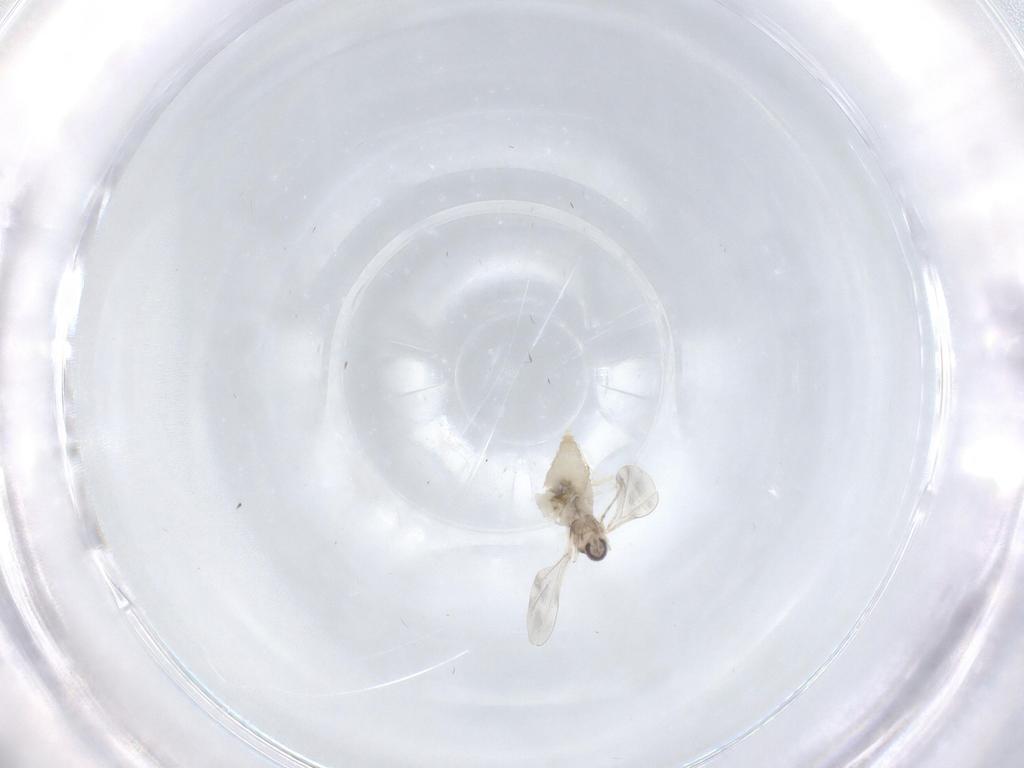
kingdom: Animalia
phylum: Arthropoda
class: Insecta
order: Diptera
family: Cecidomyiidae
